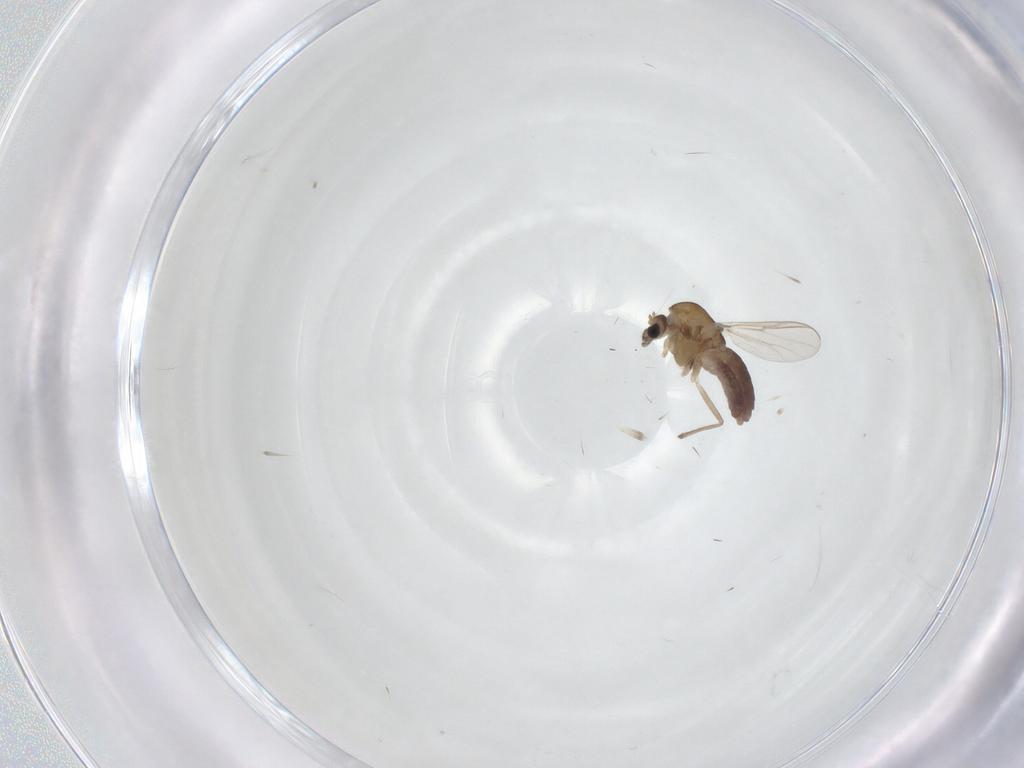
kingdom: Animalia
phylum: Arthropoda
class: Insecta
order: Diptera
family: Chironomidae
